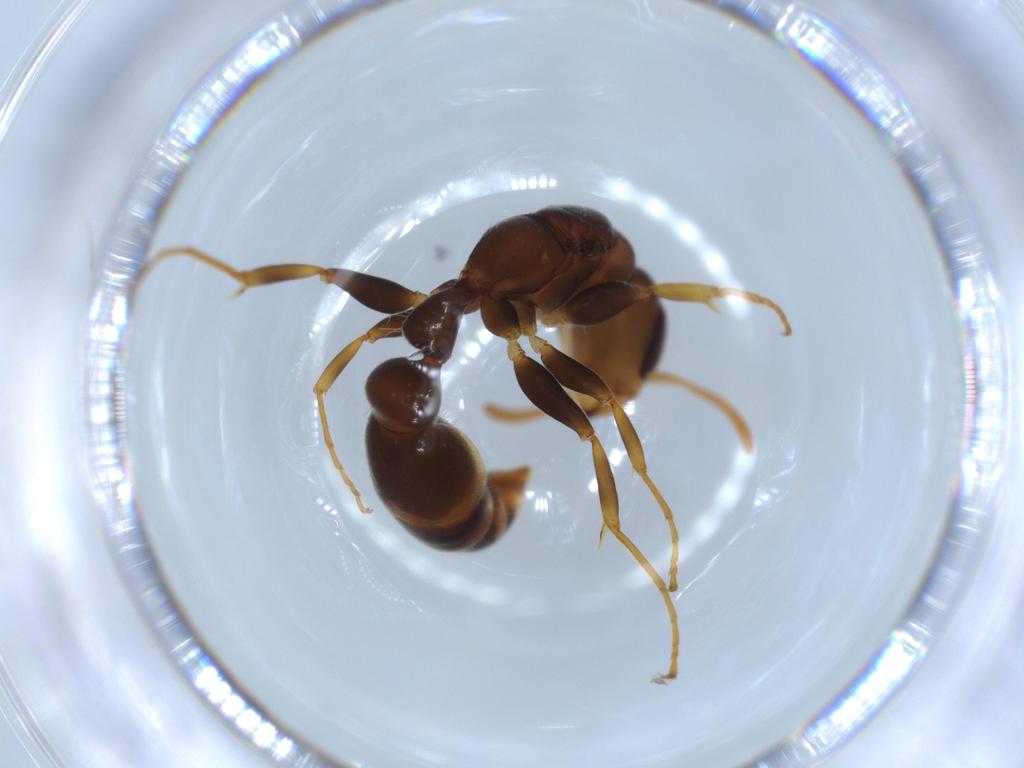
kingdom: Animalia
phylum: Arthropoda
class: Insecta
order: Hymenoptera
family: Formicidae
